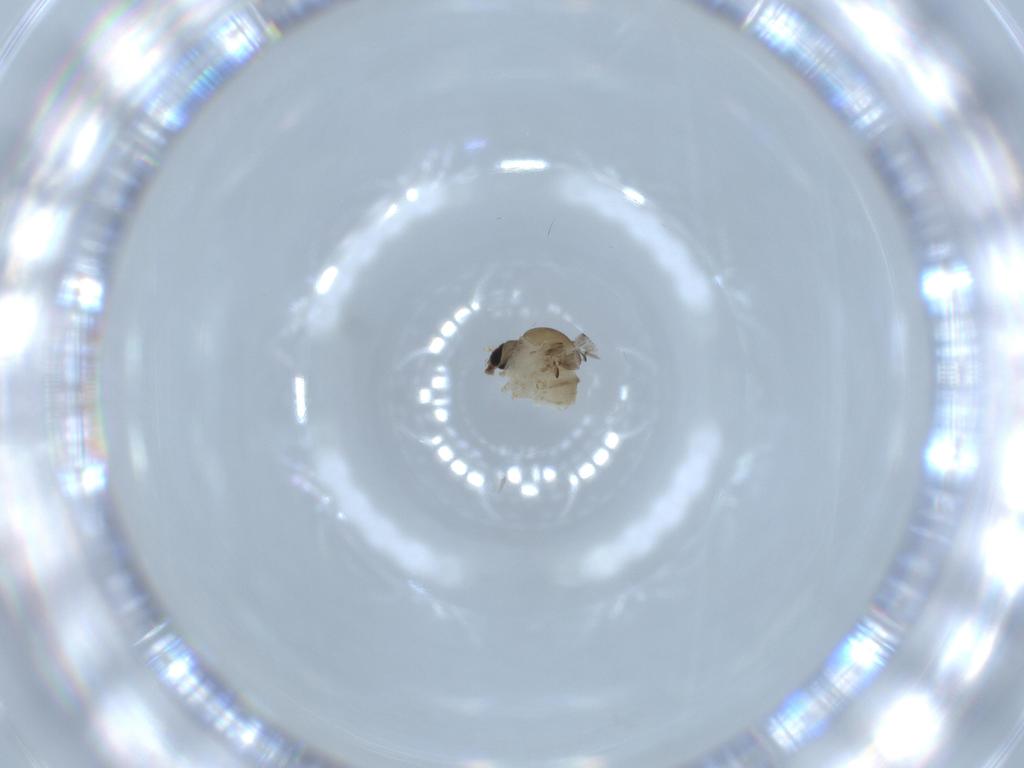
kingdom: Animalia
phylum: Arthropoda
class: Insecta
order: Diptera
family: Psychodidae
